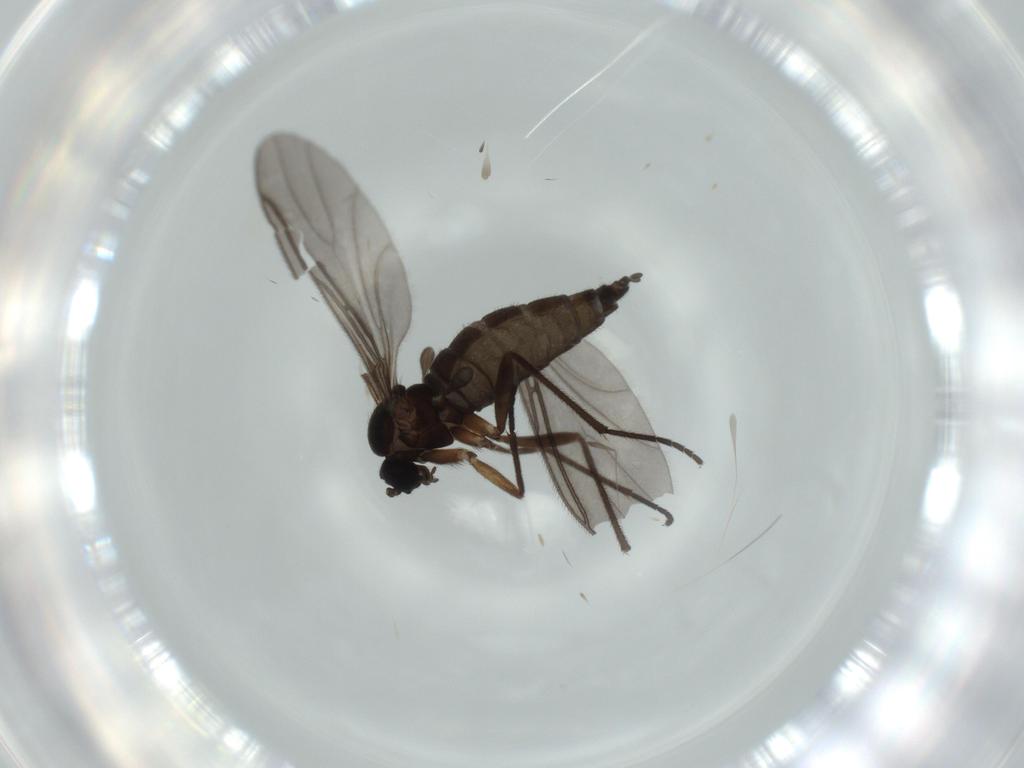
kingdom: Animalia
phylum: Arthropoda
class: Insecta
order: Diptera
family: Sciaridae
